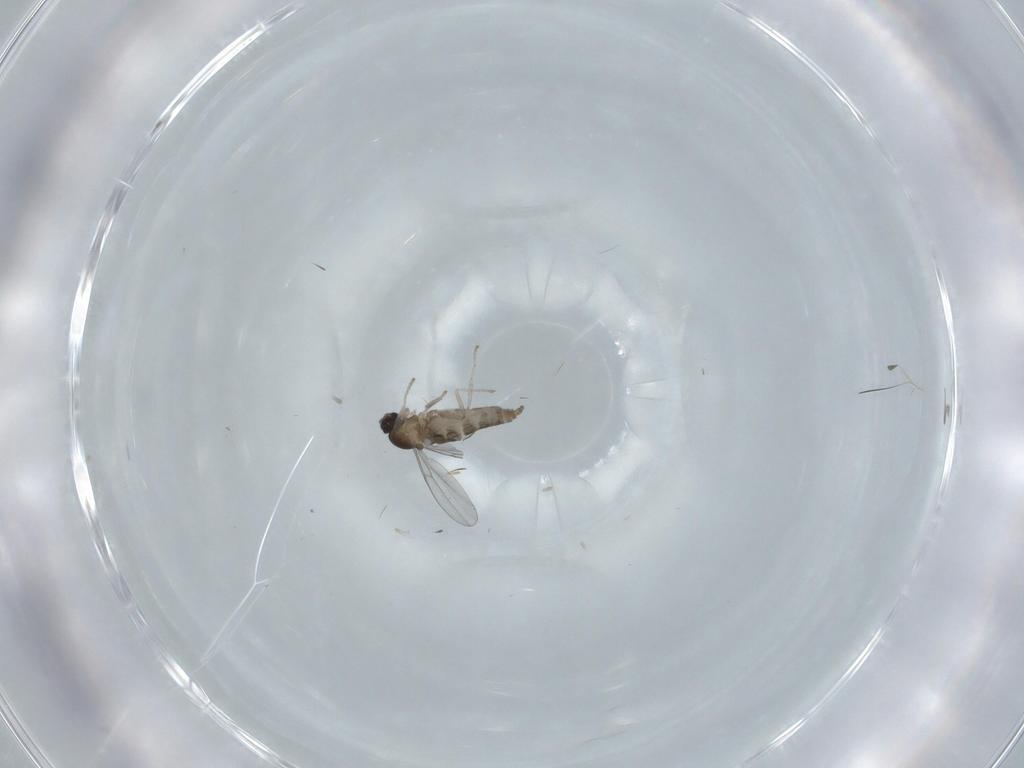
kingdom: Animalia
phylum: Arthropoda
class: Insecta
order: Diptera
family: Cecidomyiidae
